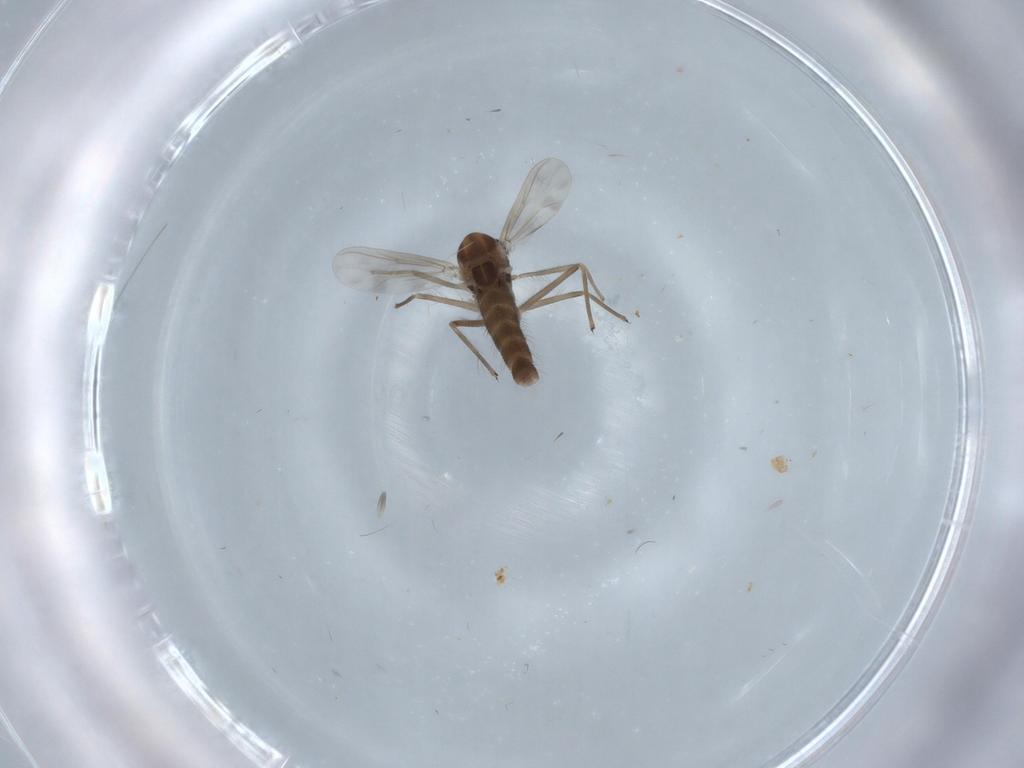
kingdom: Animalia
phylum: Arthropoda
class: Insecta
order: Diptera
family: Chironomidae
